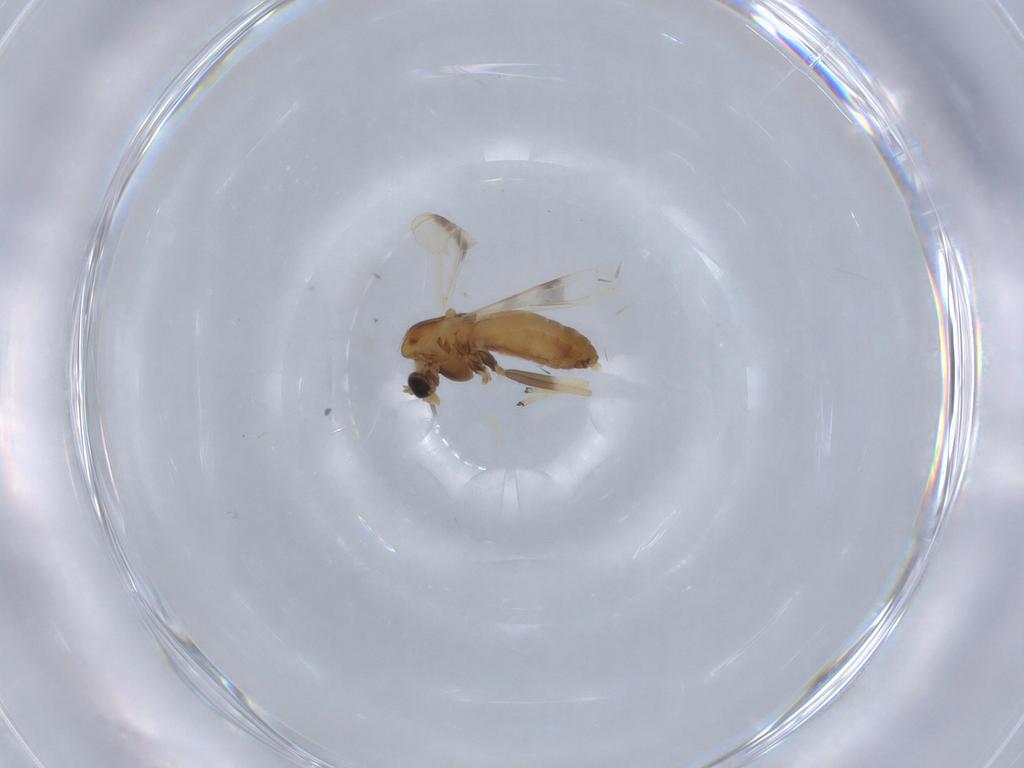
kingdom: Animalia
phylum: Arthropoda
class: Insecta
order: Diptera
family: Chironomidae
